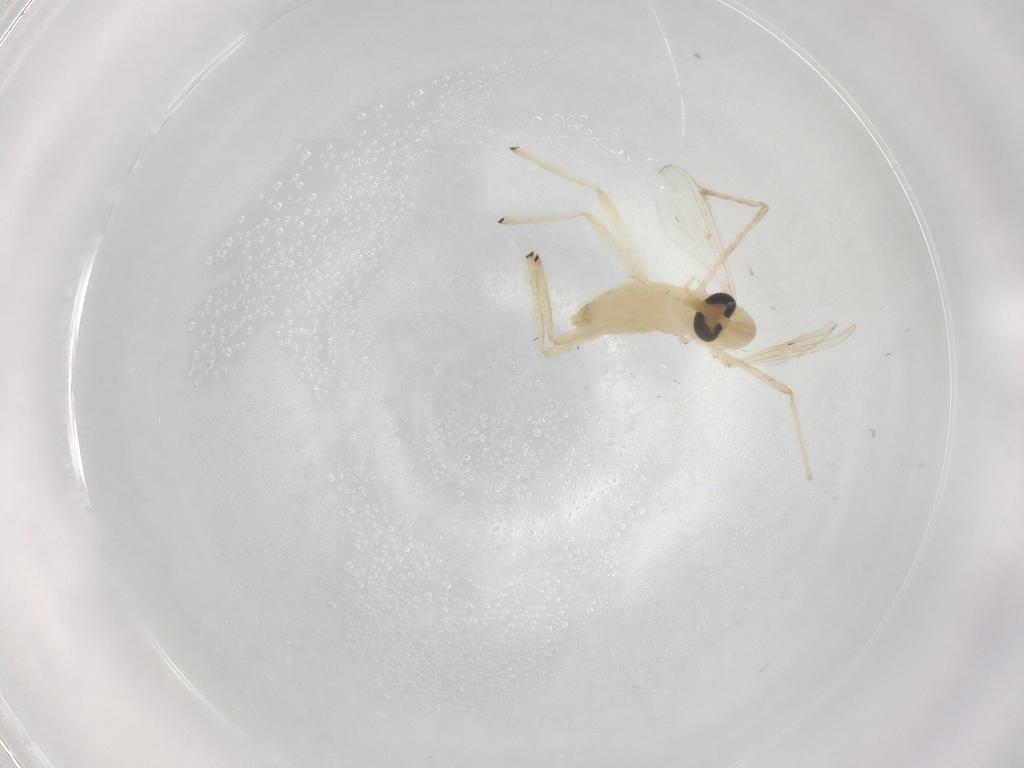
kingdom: Animalia
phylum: Arthropoda
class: Insecta
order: Diptera
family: Chironomidae
